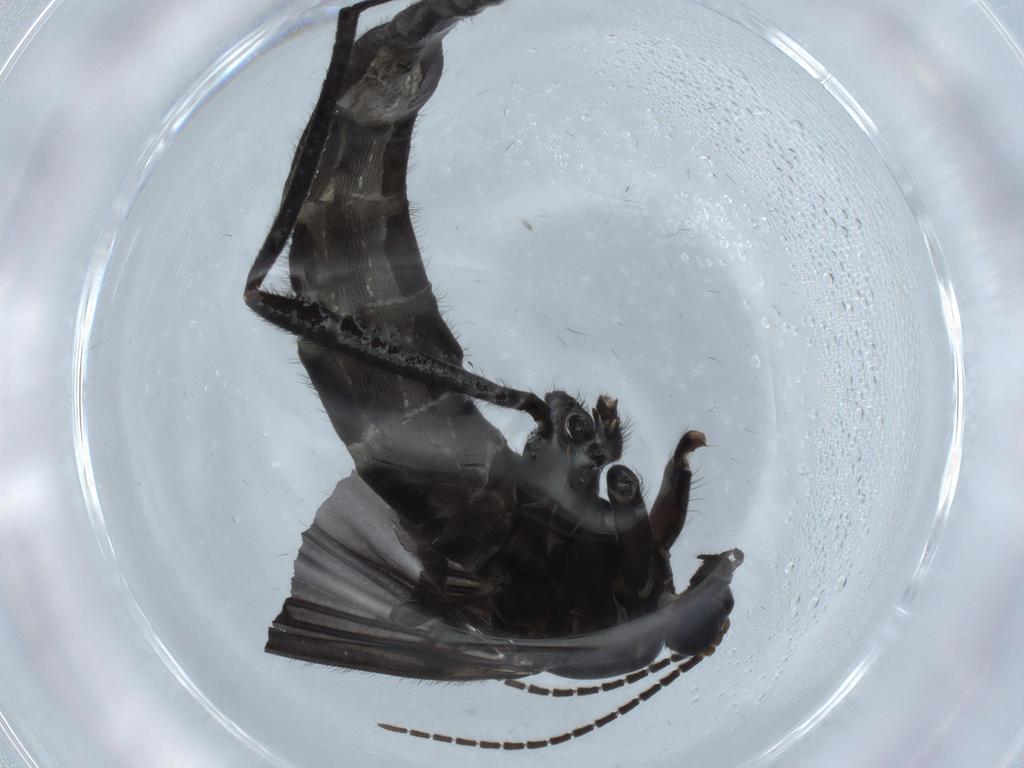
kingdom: Animalia
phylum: Arthropoda
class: Insecta
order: Diptera
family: Sciaridae
